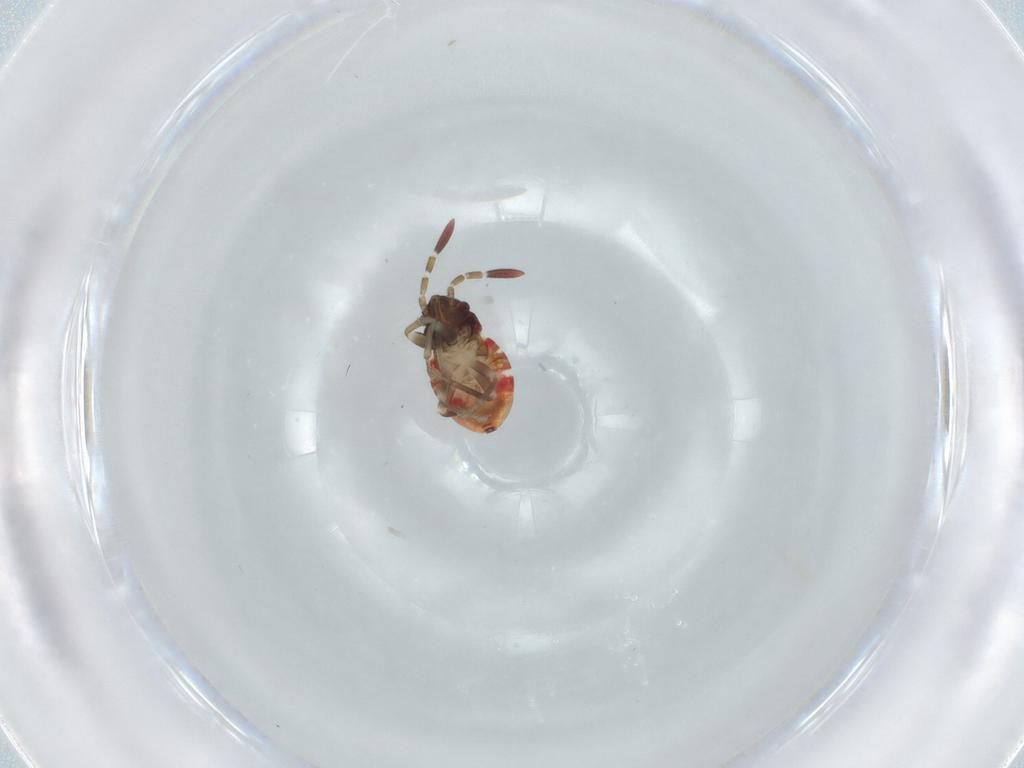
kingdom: Animalia
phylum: Arthropoda
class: Insecta
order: Hemiptera
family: Rhyparochromidae
